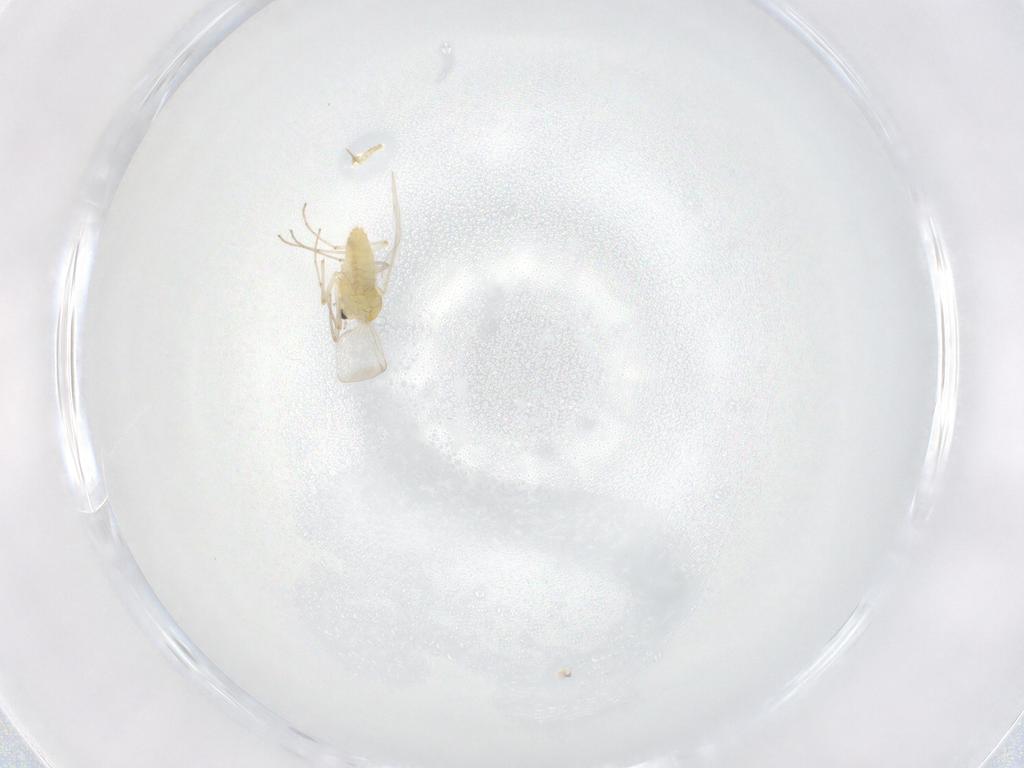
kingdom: Animalia
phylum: Arthropoda
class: Insecta
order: Diptera
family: Chironomidae
